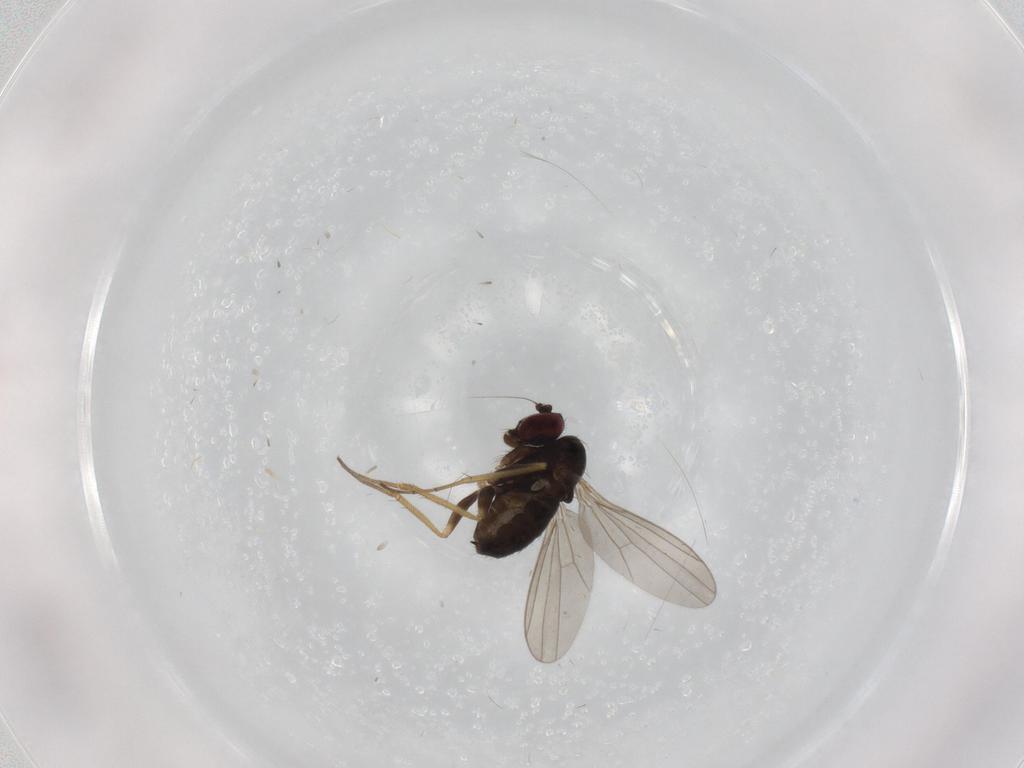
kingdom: Animalia
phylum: Arthropoda
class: Insecta
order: Diptera
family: Dolichopodidae
